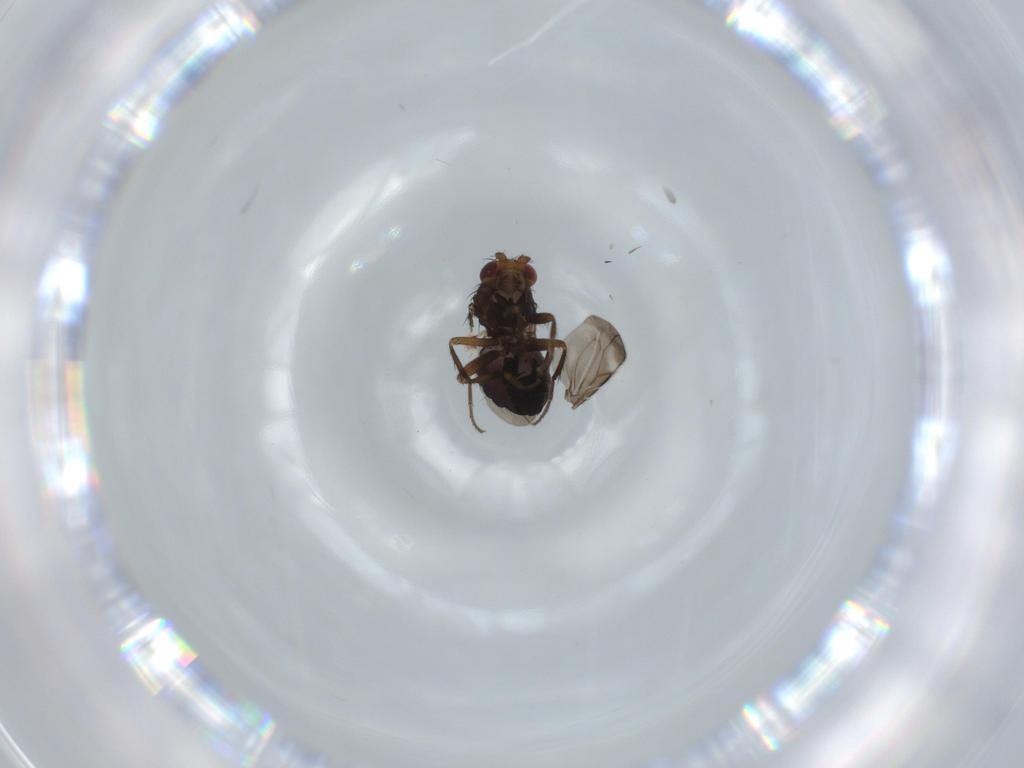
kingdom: Animalia
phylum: Arthropoda
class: Insecta
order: Diptera
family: Sphaeroceridae
